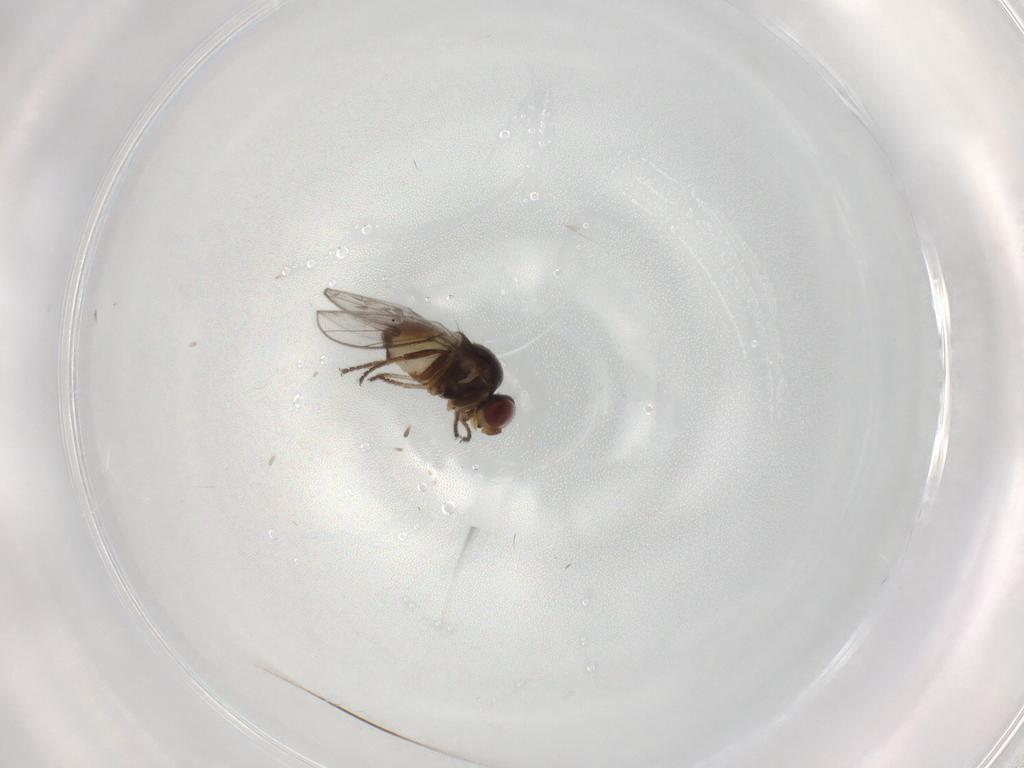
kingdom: Animalia
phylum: Arthropoda
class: Insecta
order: Diptera
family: Chloropidae
